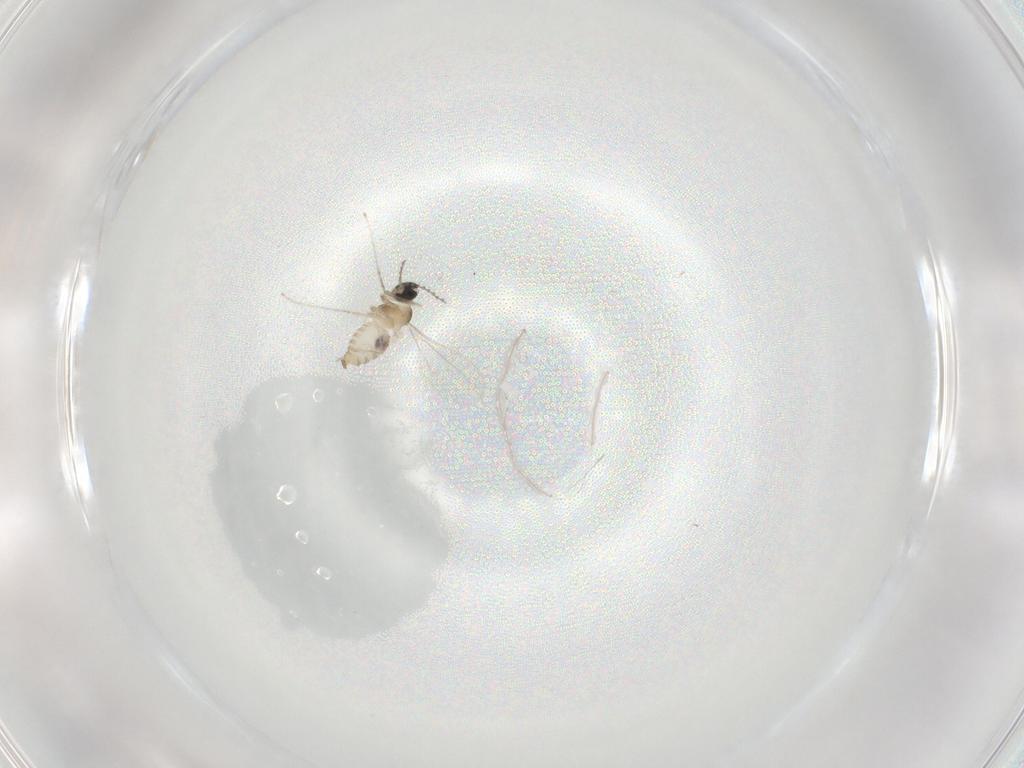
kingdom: Animalia
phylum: Arthropoda
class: Insecta
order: Diptera
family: Cecidomyiidae
